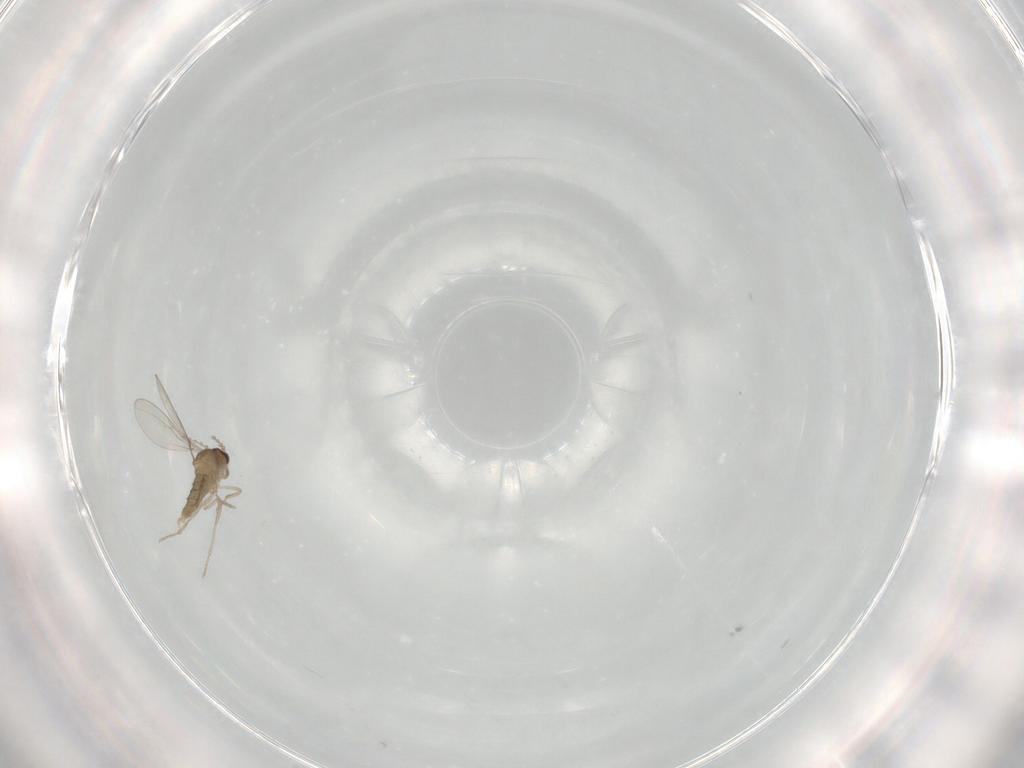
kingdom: Animalia
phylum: Arthropoda
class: Insecta
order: Diptera
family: Cecidomyiidae
